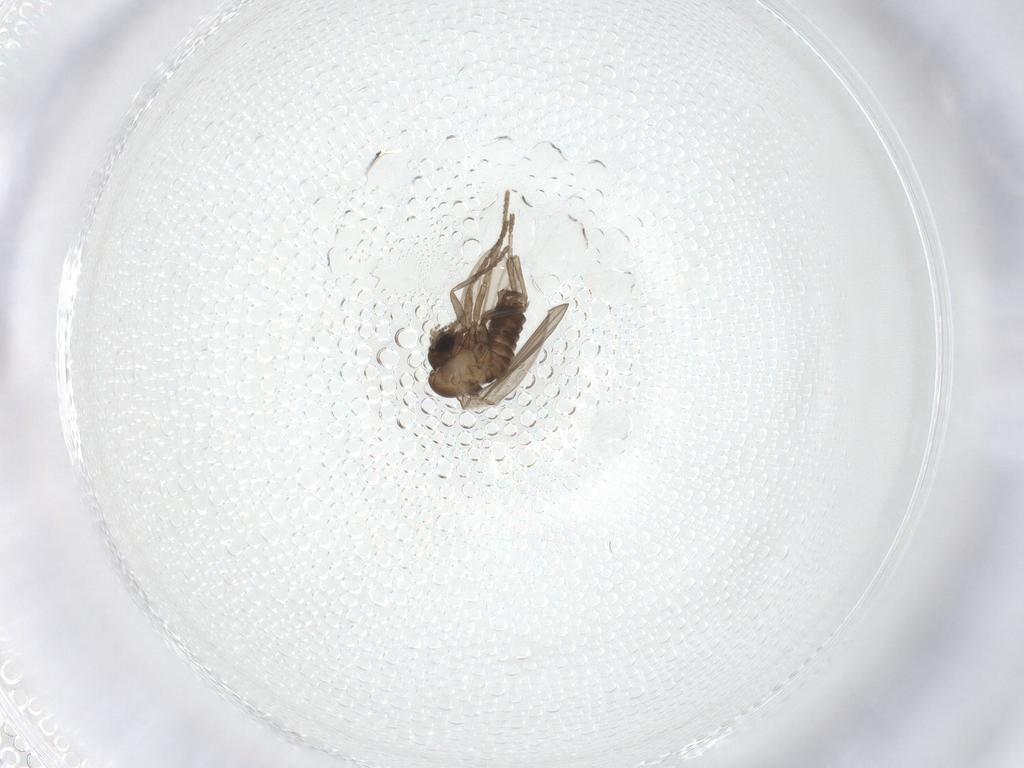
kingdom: Animalia
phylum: Arthropoda
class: Insecta
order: Diptera
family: Psychodidae
